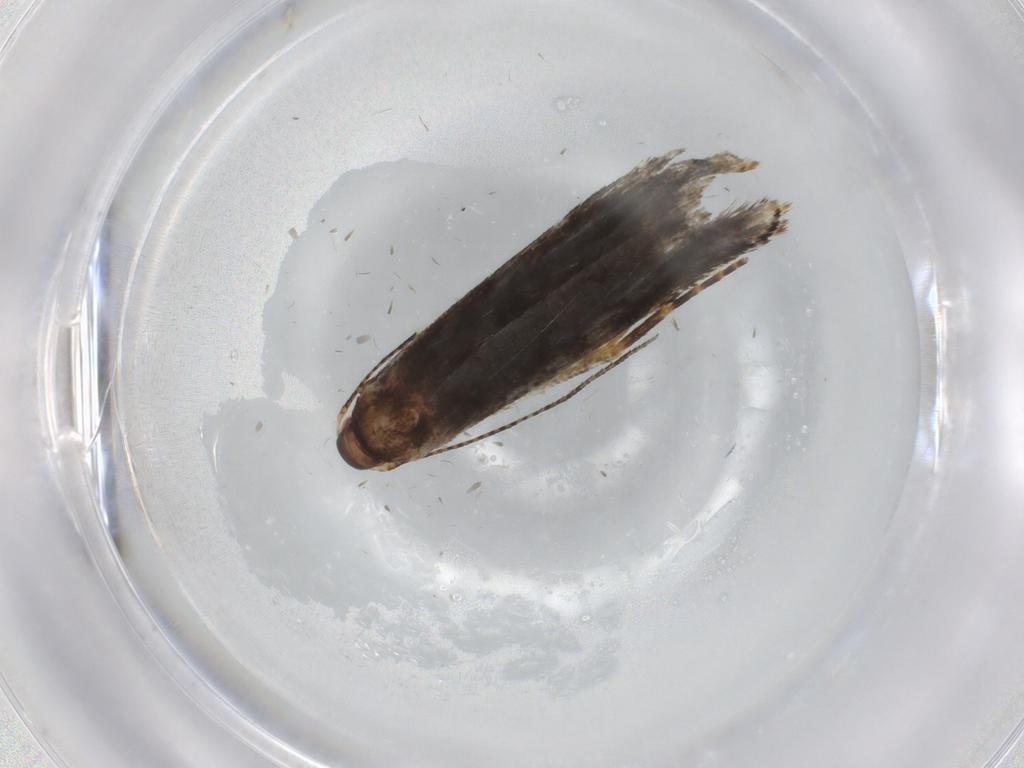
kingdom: Animalia
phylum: Arthropoda
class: Insecta
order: Lepidoptera
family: Gelechiidae
